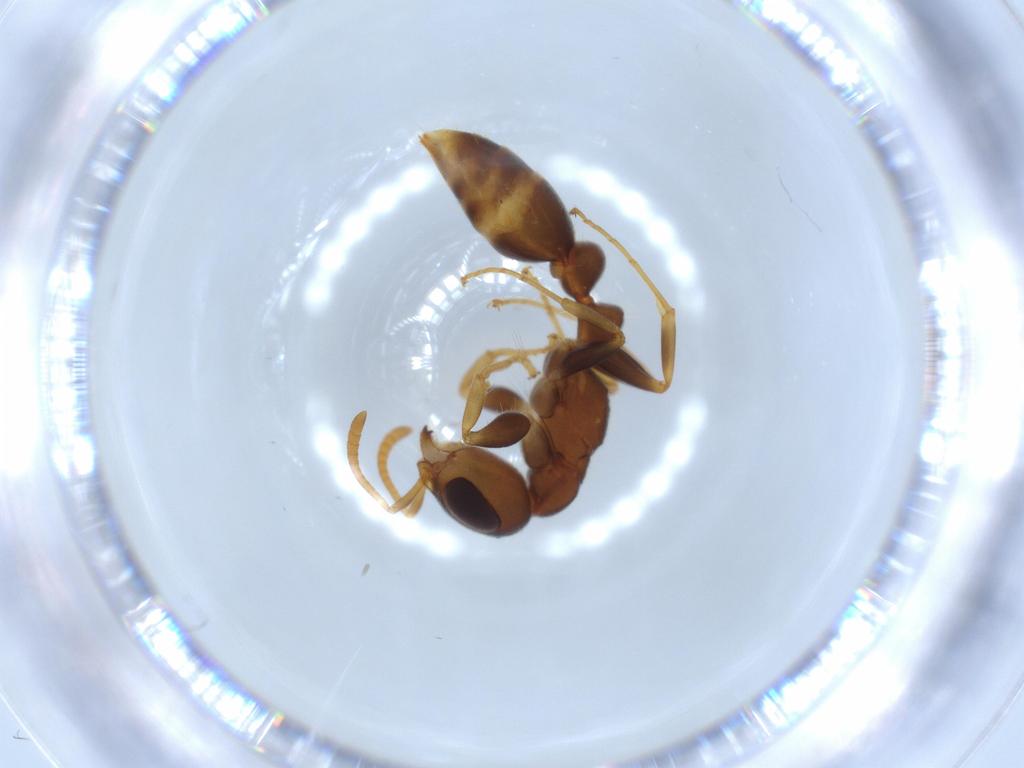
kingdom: Animalia
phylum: Arthropoda
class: Insecta
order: Hymenoptera
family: Formicidae
